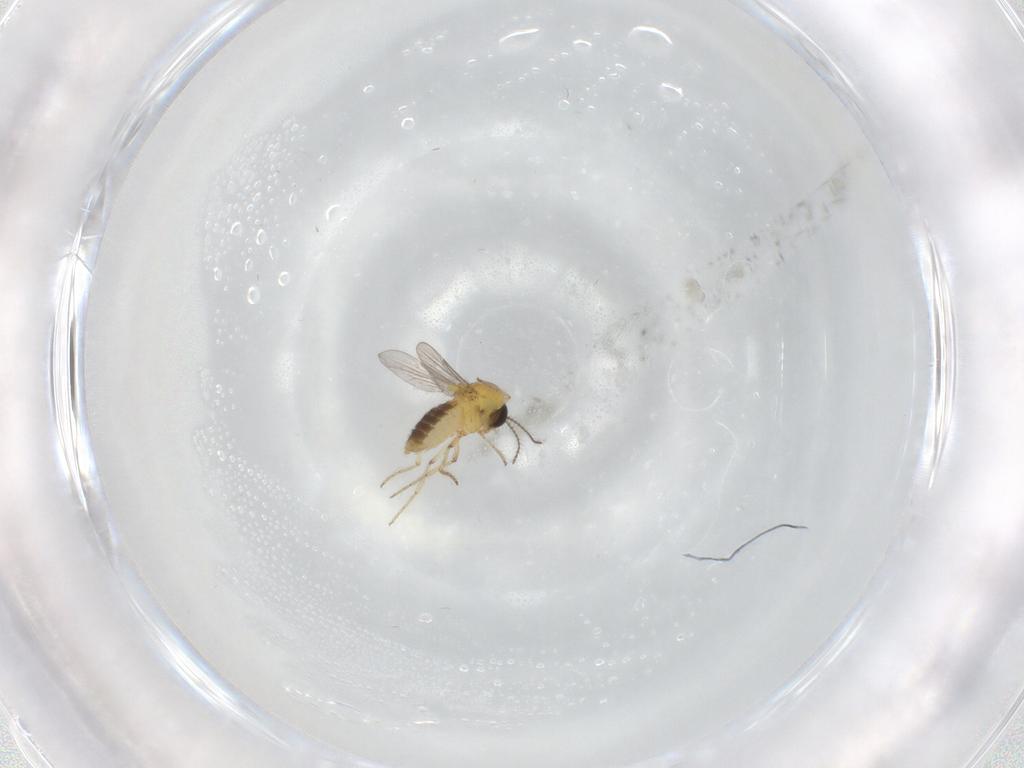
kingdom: Animalia
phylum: Arthropoda
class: Insecta
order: Diptera
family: Ceratopogonidae
